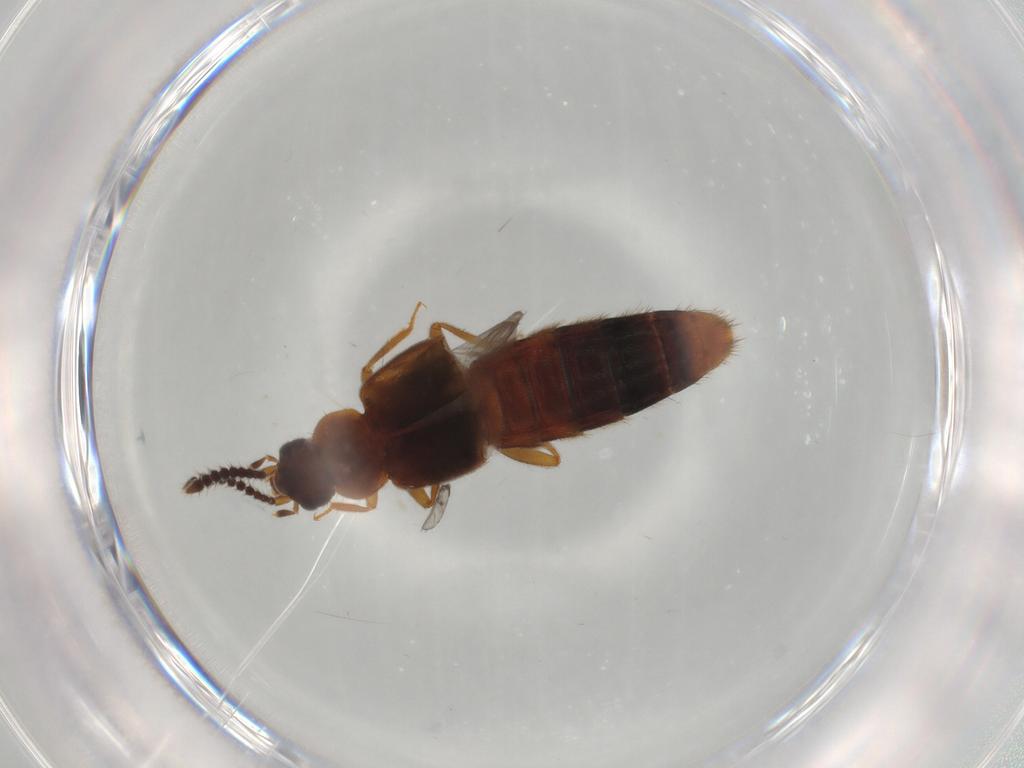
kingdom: Animalia
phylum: Arthropoda
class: Insecta
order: Coleoptera
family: Staphylinidae
